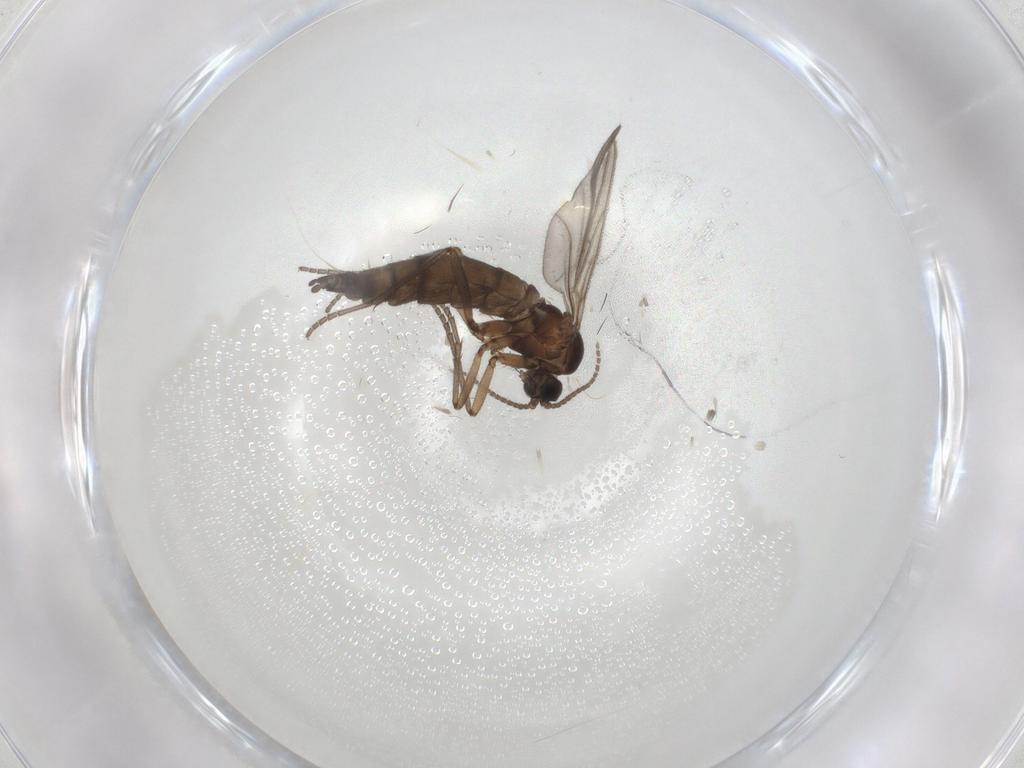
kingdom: Animalia
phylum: Arthropoda
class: Insecta
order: Diptera
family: Sciaridae
